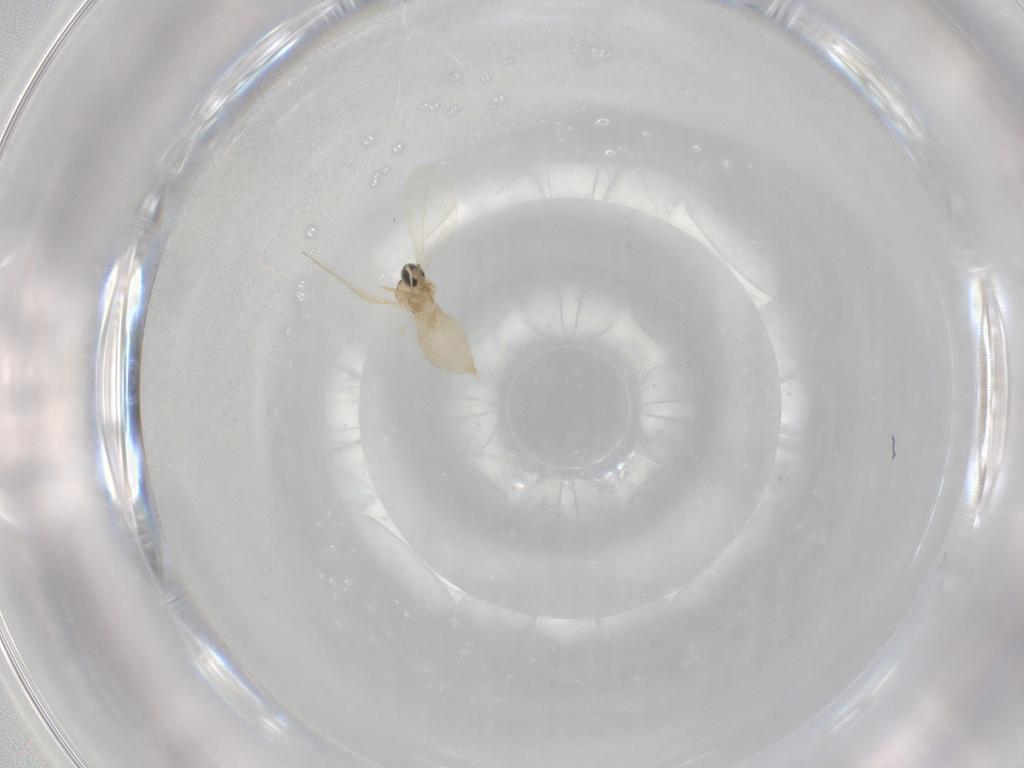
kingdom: Animalia
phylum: Arthropoda
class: Insecta
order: Diptera
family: Cecidomyiidae
